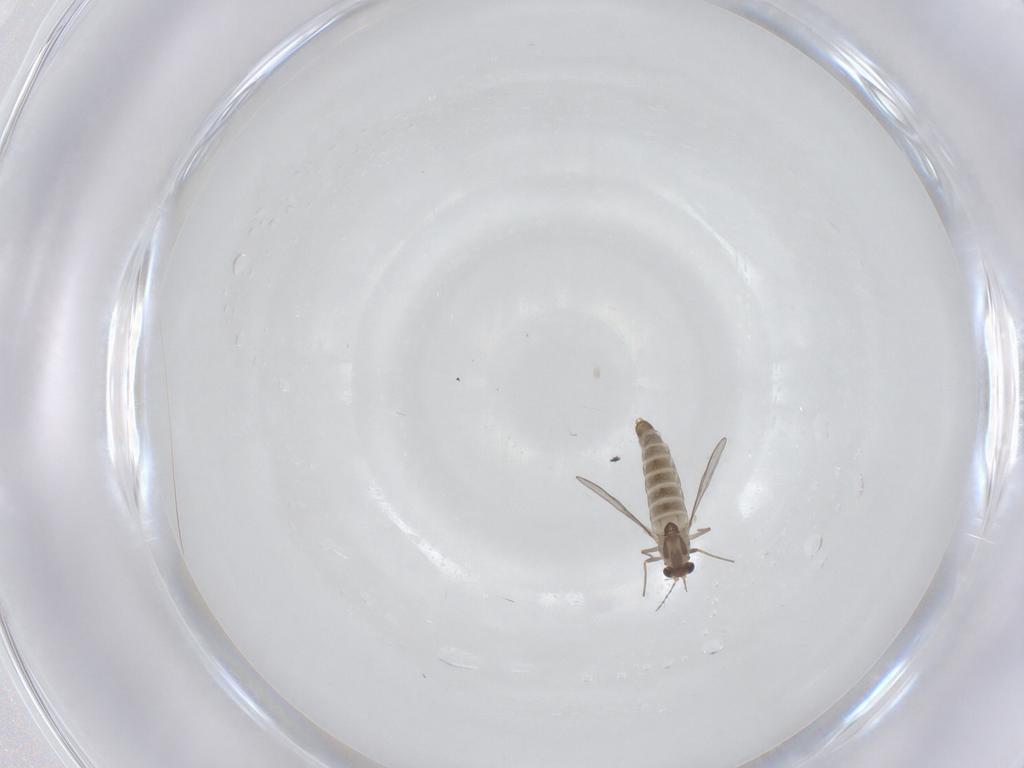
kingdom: Animalia
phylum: Arthropoda
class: Insecta
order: Diptera
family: Chironomidae
